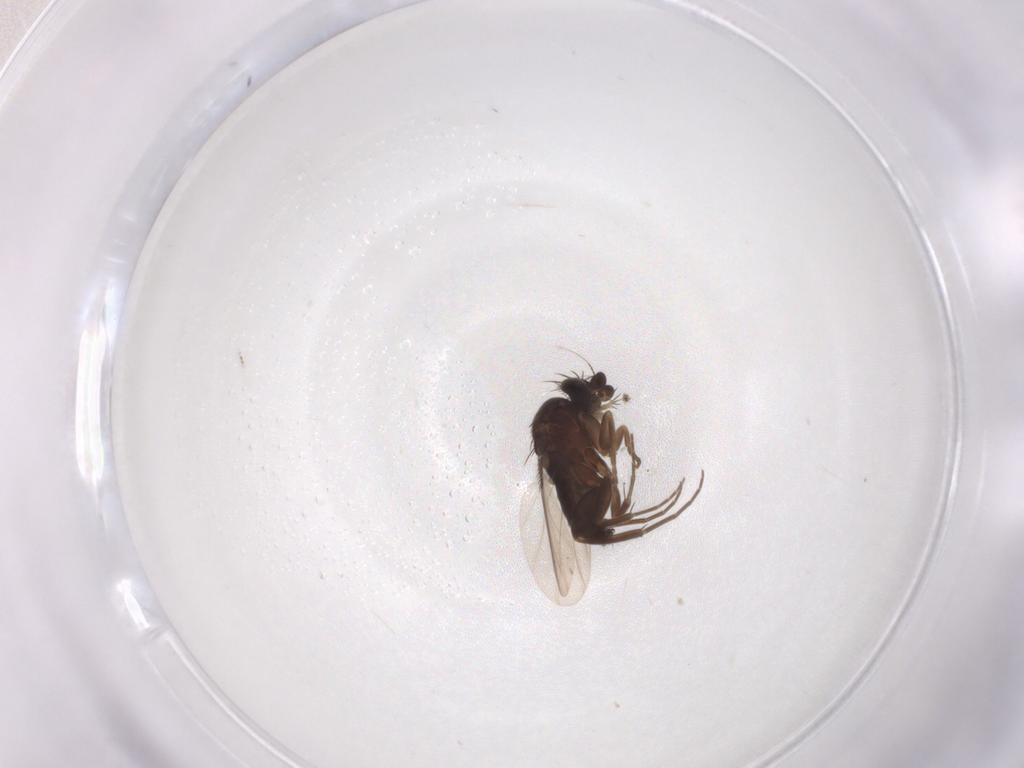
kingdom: Animalia
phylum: Arthropoda
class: Insecta
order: Diptera
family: Phoridae
